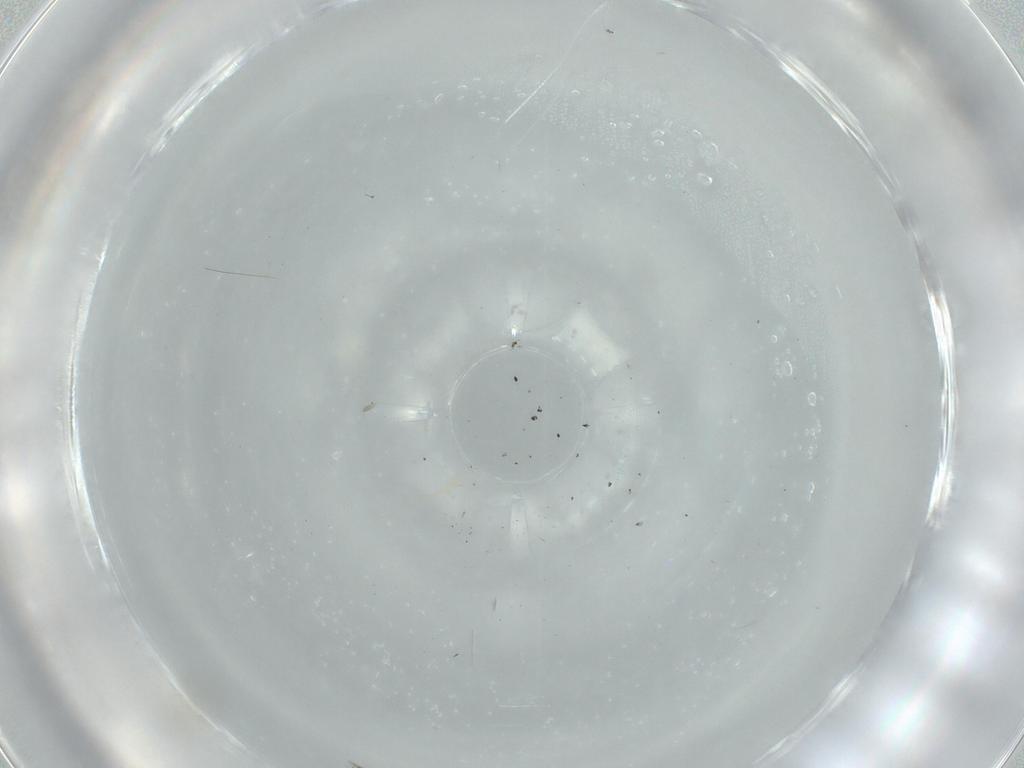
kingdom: Animalia
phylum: Arthropoda
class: Insecta
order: Diptera
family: Cecidomyiidae
